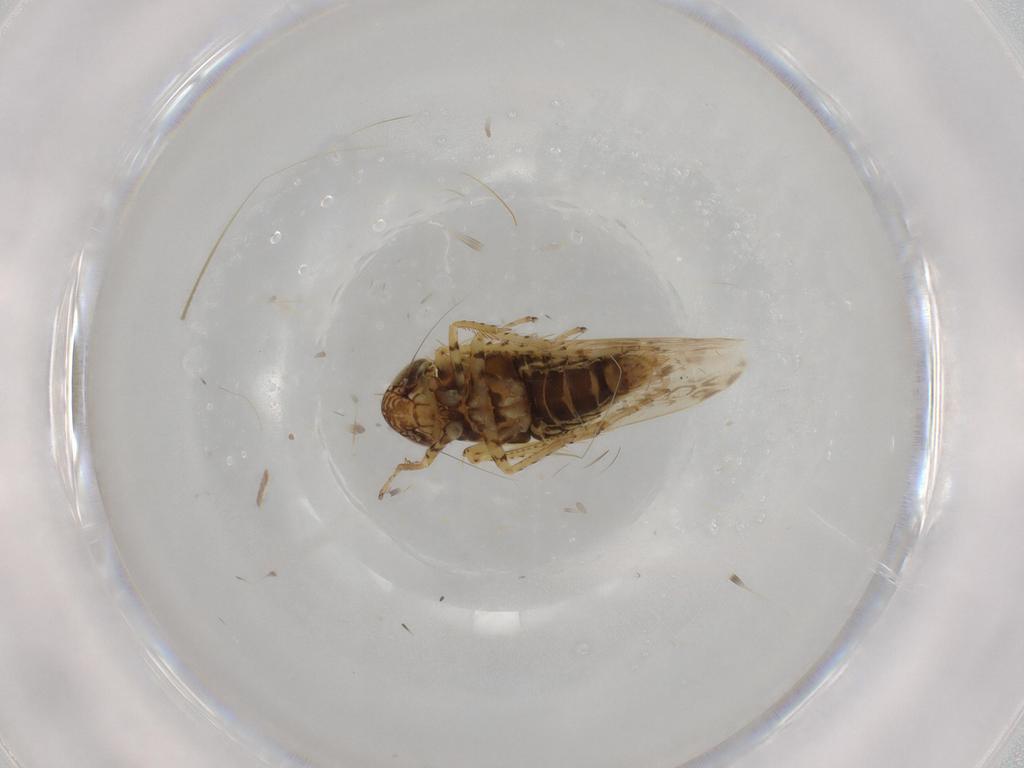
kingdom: Animalia
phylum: Arthropoda
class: Insecta
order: Hemiptera
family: Cicadellidae
